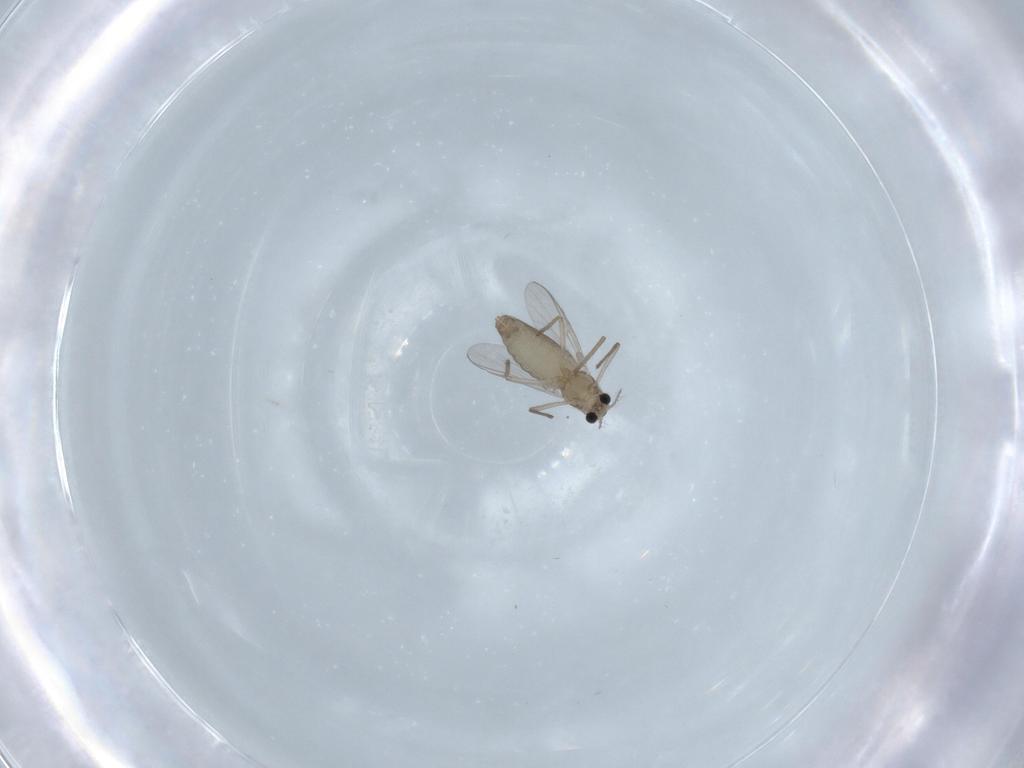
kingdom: Animalia
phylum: Arthropoda
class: Insecta
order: Diptera
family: Chironomidae
